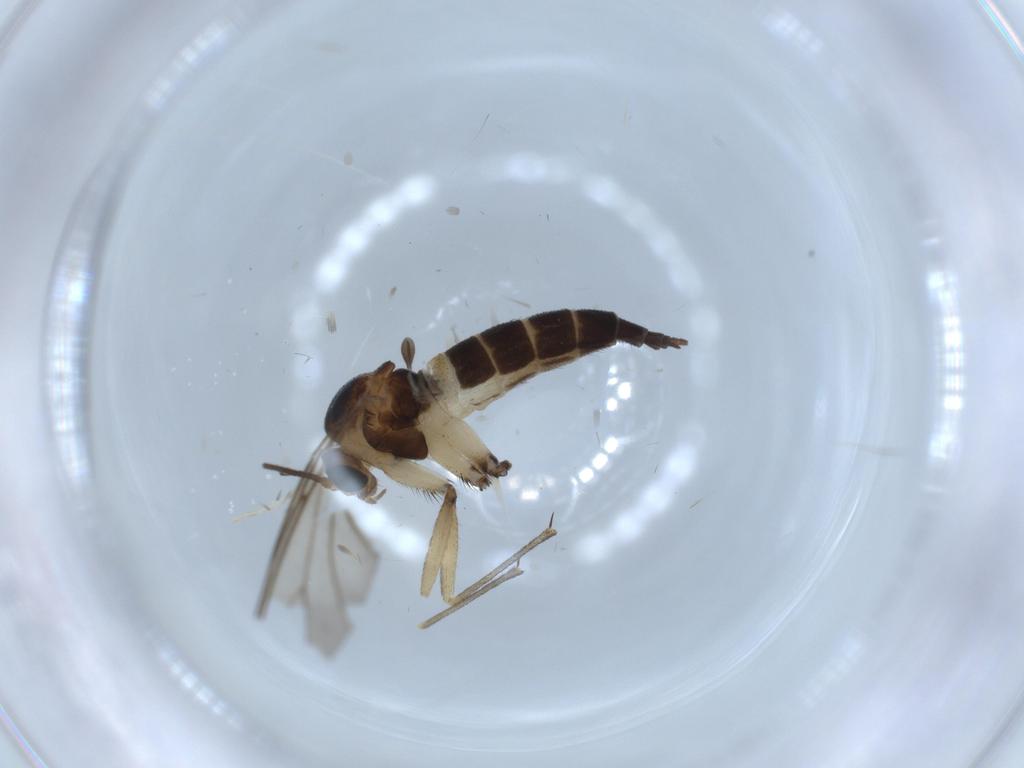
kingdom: Animalia
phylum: Arthropoda
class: Insecta
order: Diptera
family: Sciaridae
